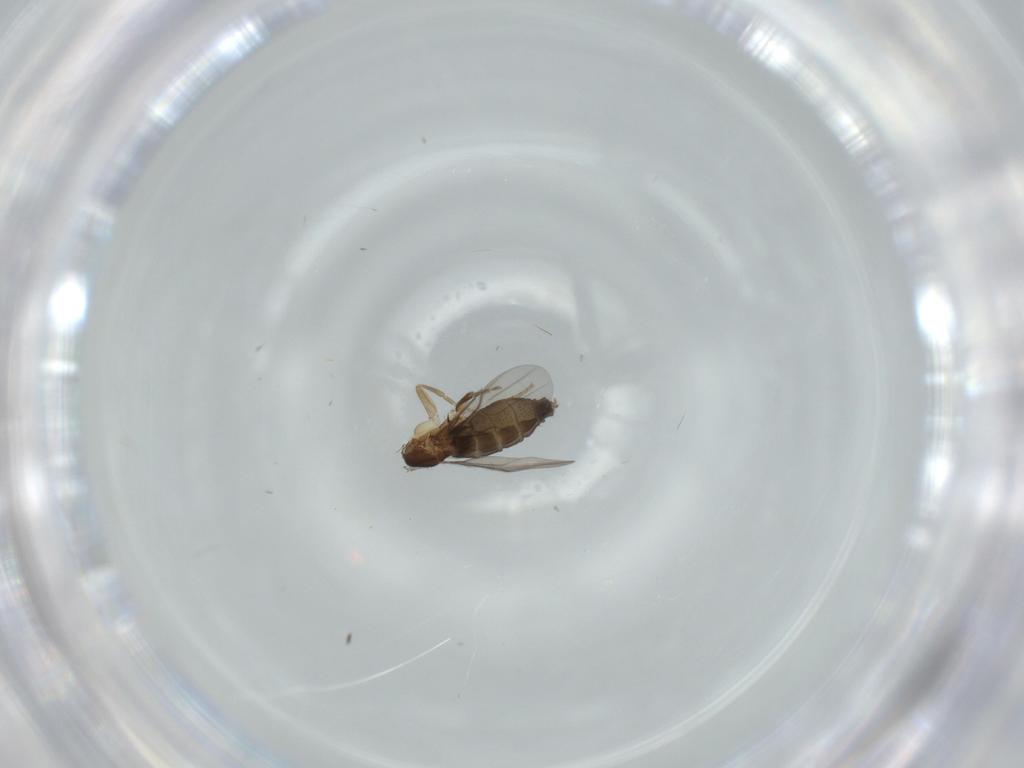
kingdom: Animalia
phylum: Arthropoda
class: Insecta
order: Diptera
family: Phoridae
